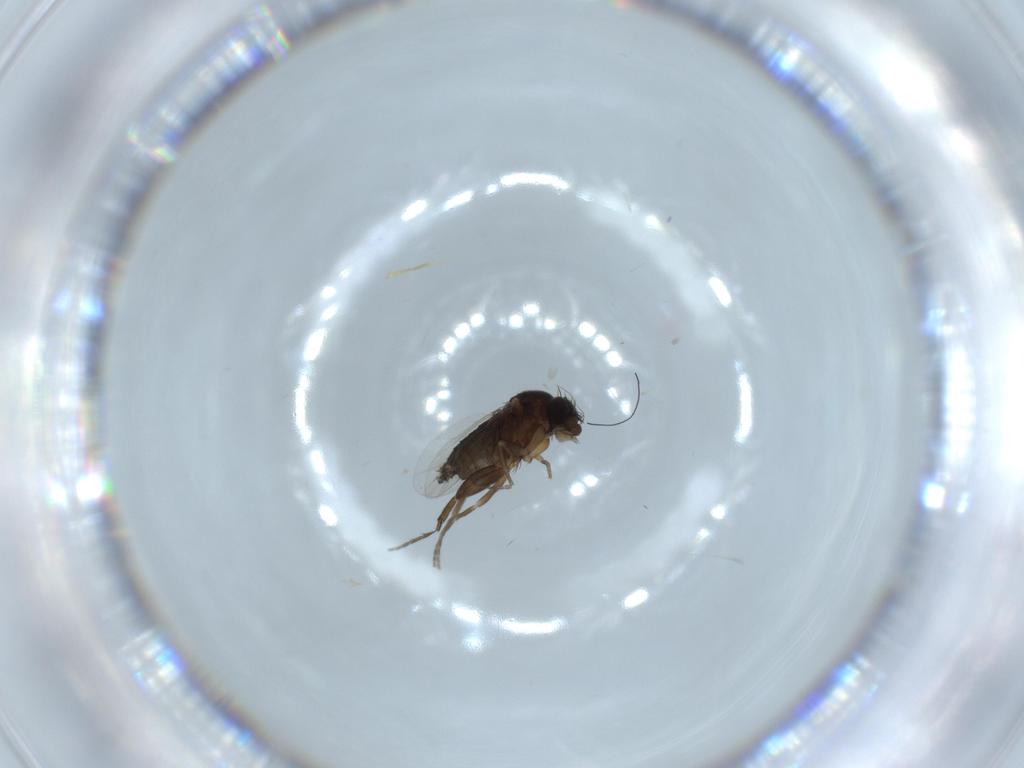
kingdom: Animalia
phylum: Arthropoda
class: Insecta
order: Diptera
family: Phoridae
